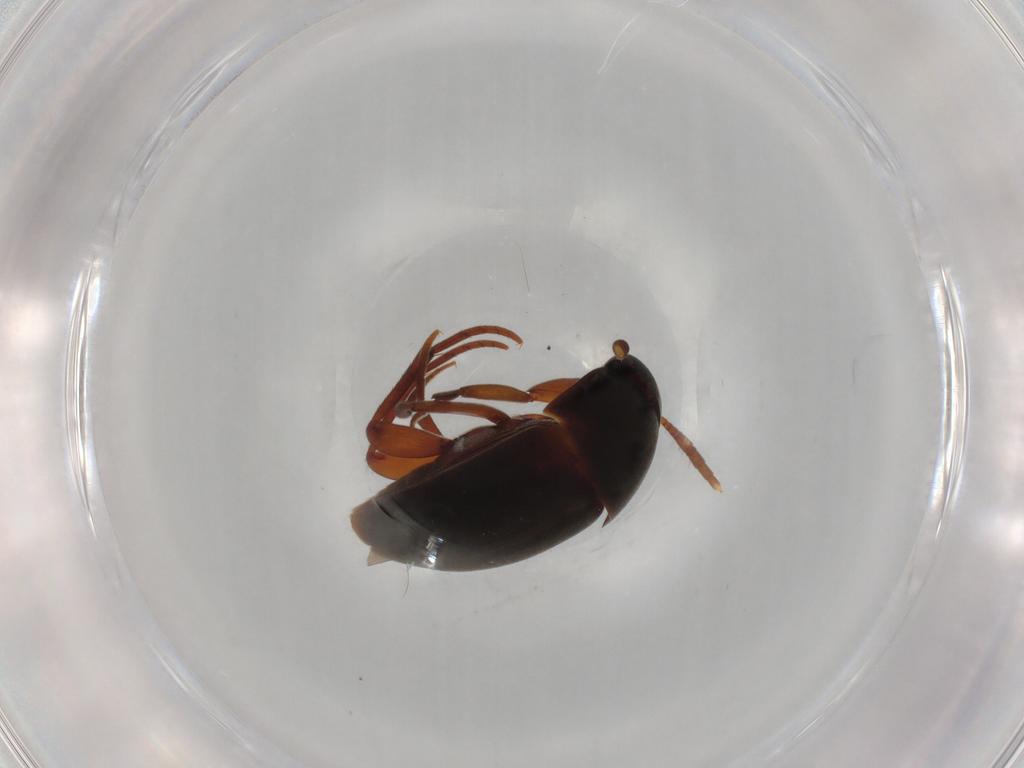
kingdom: Animalia
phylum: Arthropoda
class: Insecta
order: Coleoptera
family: Leiodidae
